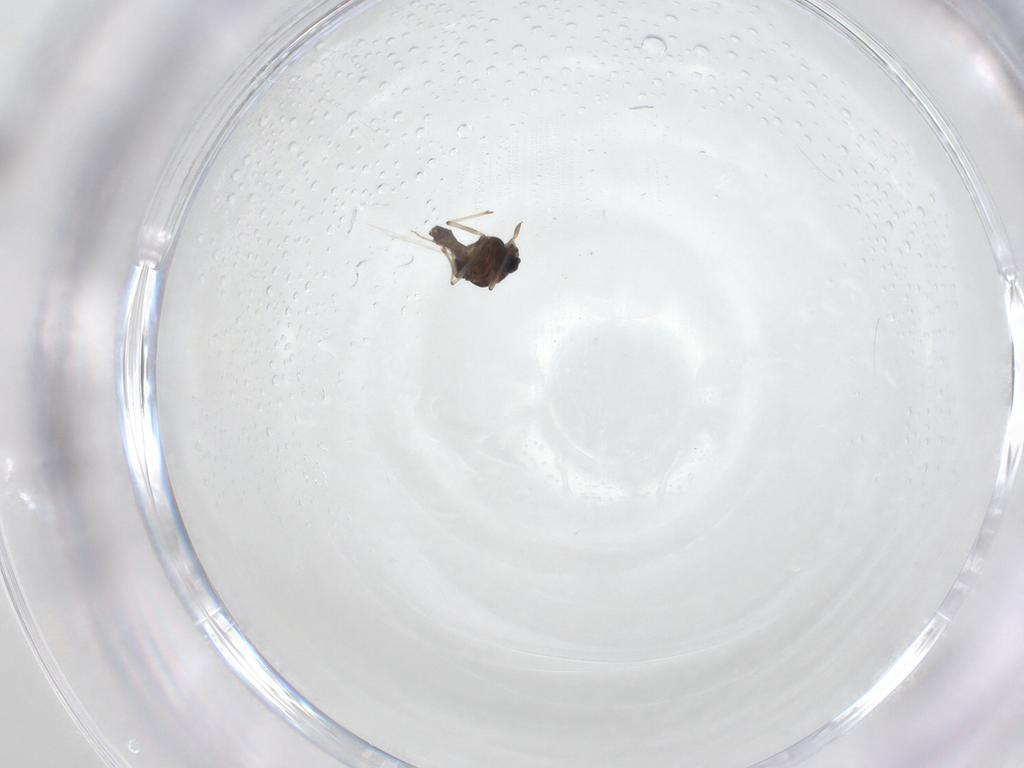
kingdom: Animalia
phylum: Arthropoda
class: Insecta
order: Diptera
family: Chironomidae
